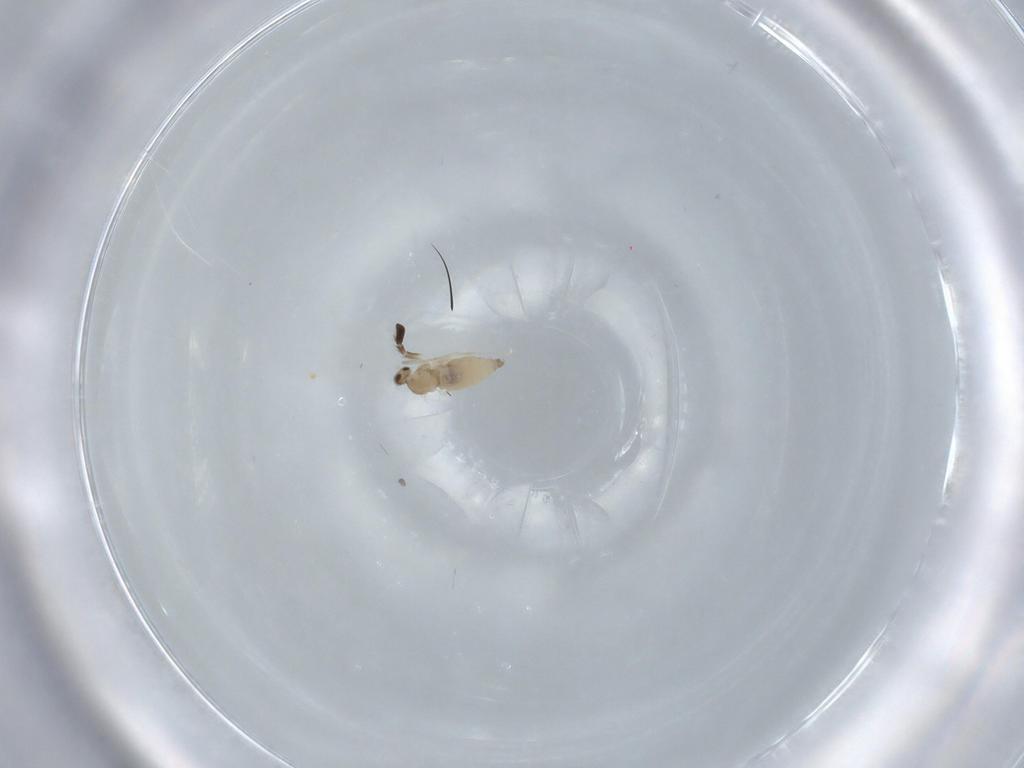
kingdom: Animalia
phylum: Arthropoda
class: Insecta
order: Diptera
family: Cecidomyiidae
